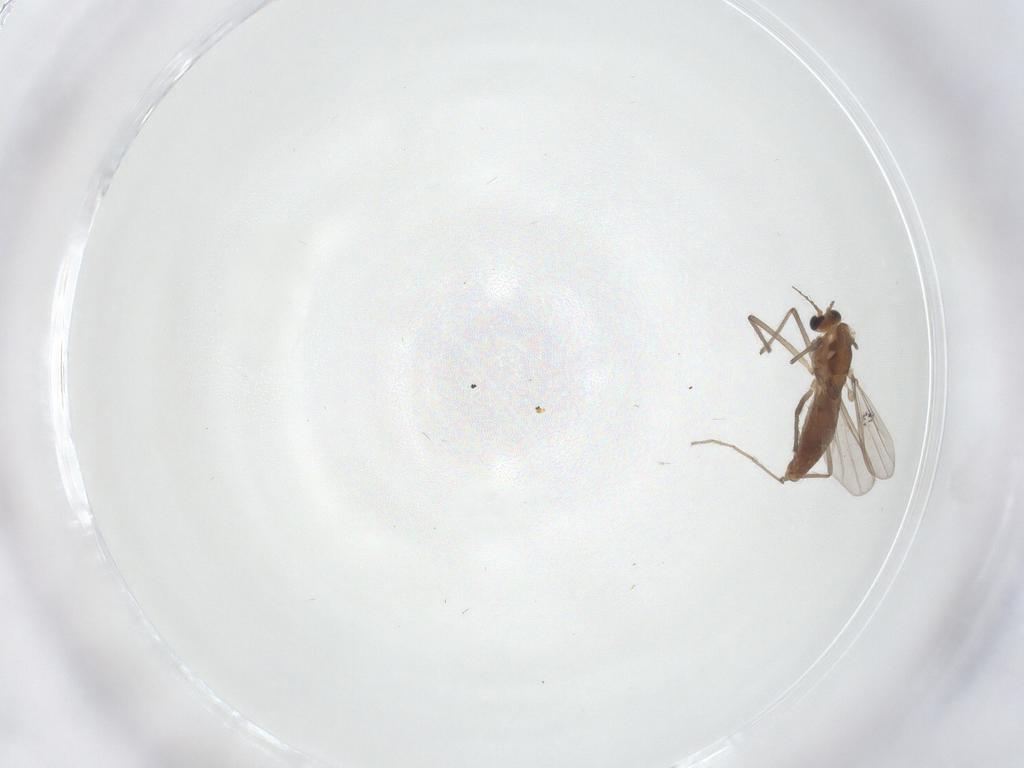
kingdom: Animalia
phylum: Arthropoda
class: Insecta
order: Diptera
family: Chironomidae
